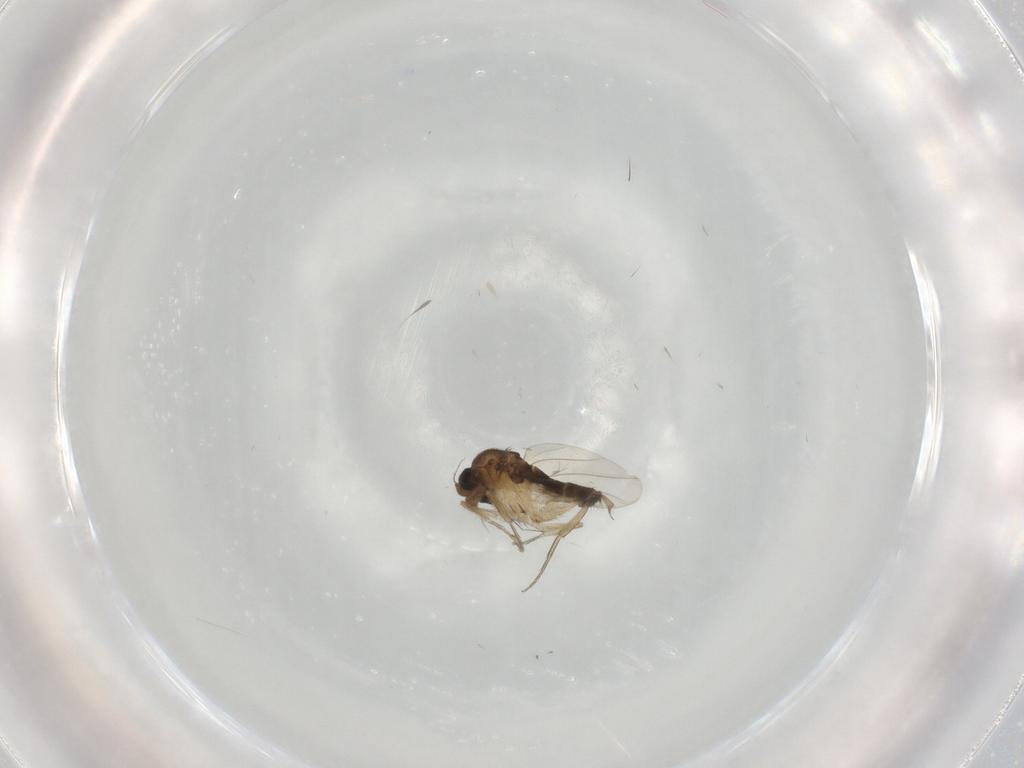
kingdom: Animalia
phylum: Arthropoda
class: Insecta
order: Diptera
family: Phoridae
